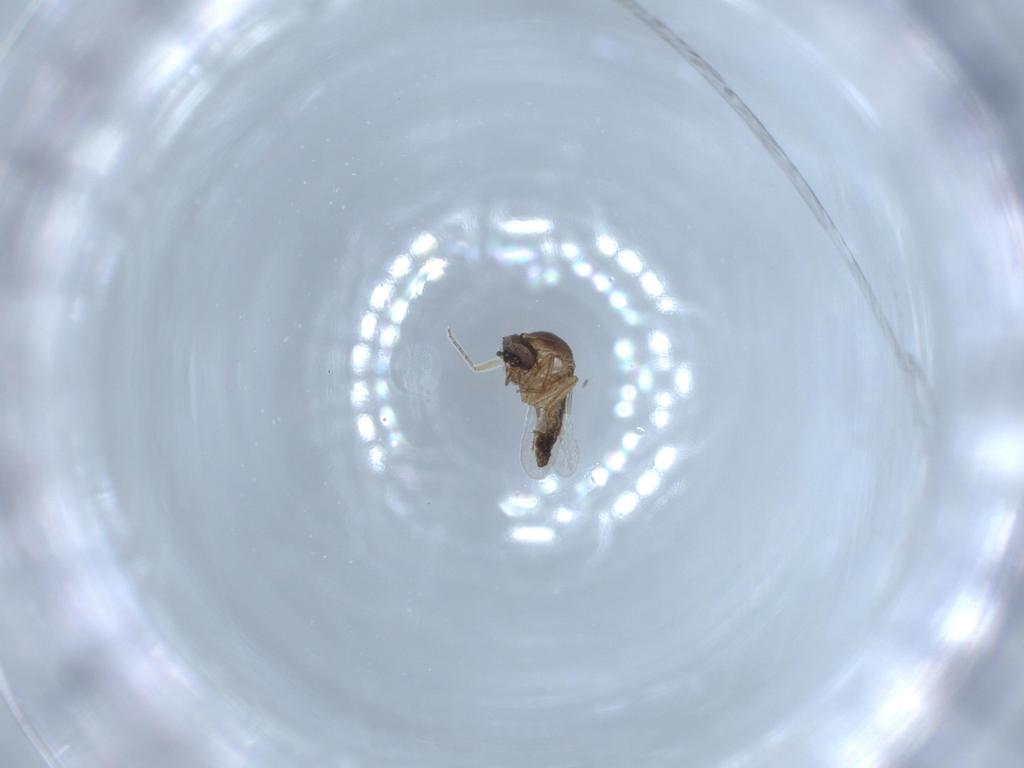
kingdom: Animalia
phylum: Arthropoda
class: Insecta
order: Diptera
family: Ceratopogonidae
